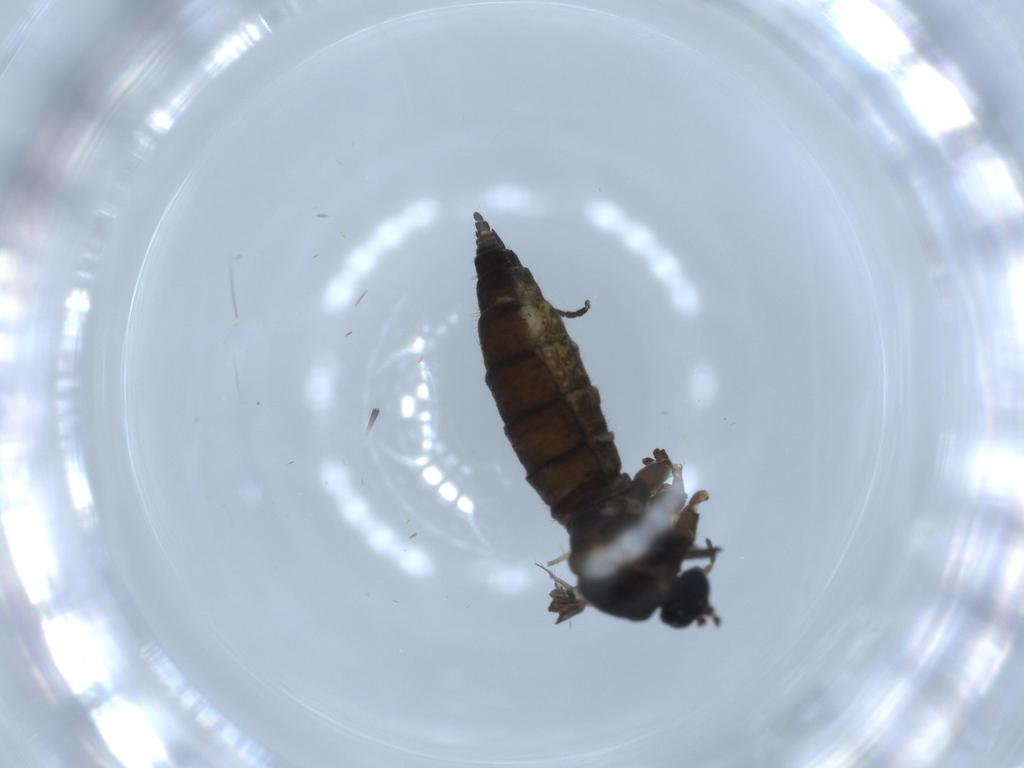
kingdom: Animalia
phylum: Arthropoda
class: Insecta
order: Diptera
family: Sciaridae
